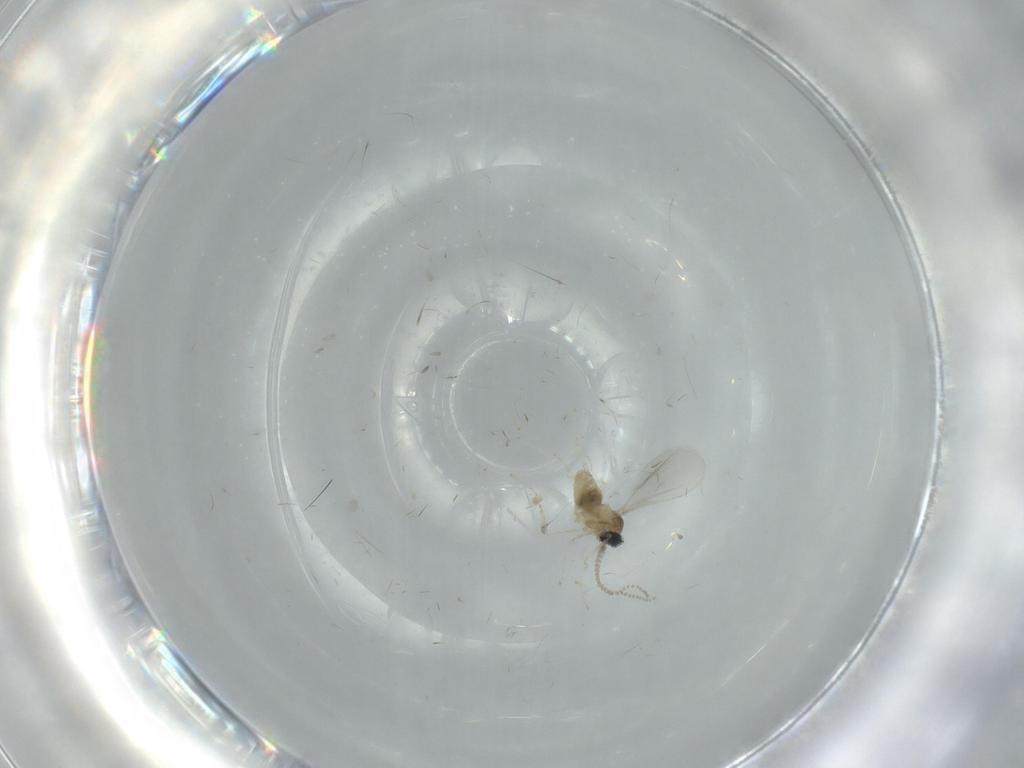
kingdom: Animalia
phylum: Arthropoda
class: Insecta
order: Diptera
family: Cecidomyiidae
